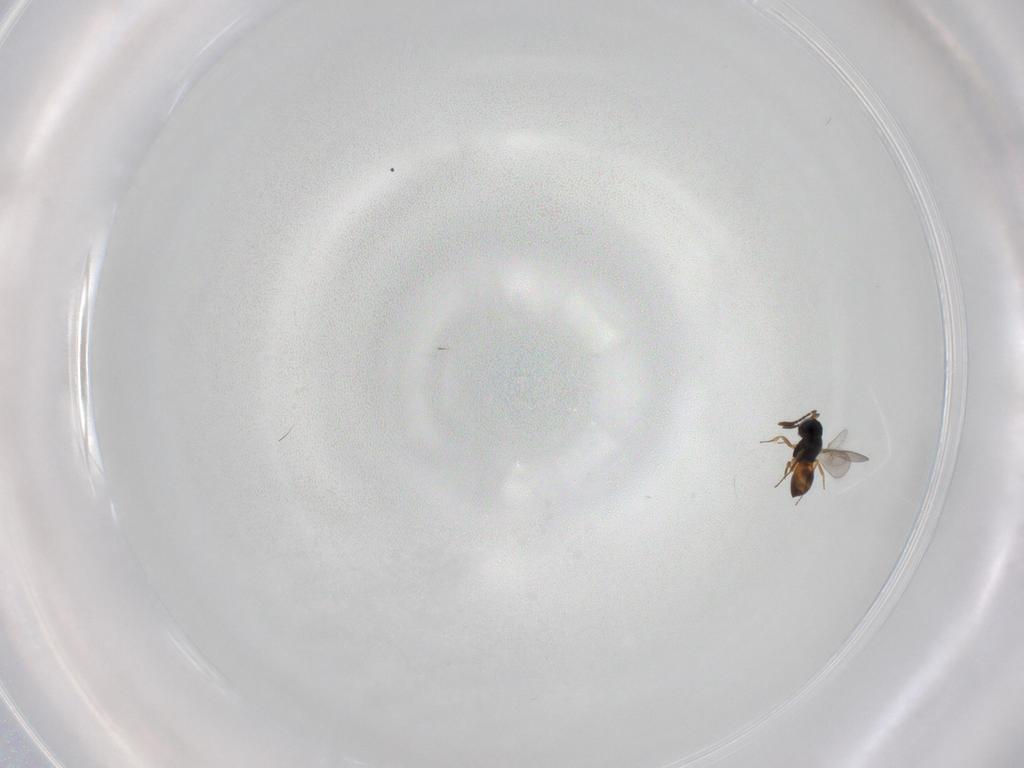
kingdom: Animalia
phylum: Arthropoda
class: Insecta
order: Hymenoptera
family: Scelionidae
